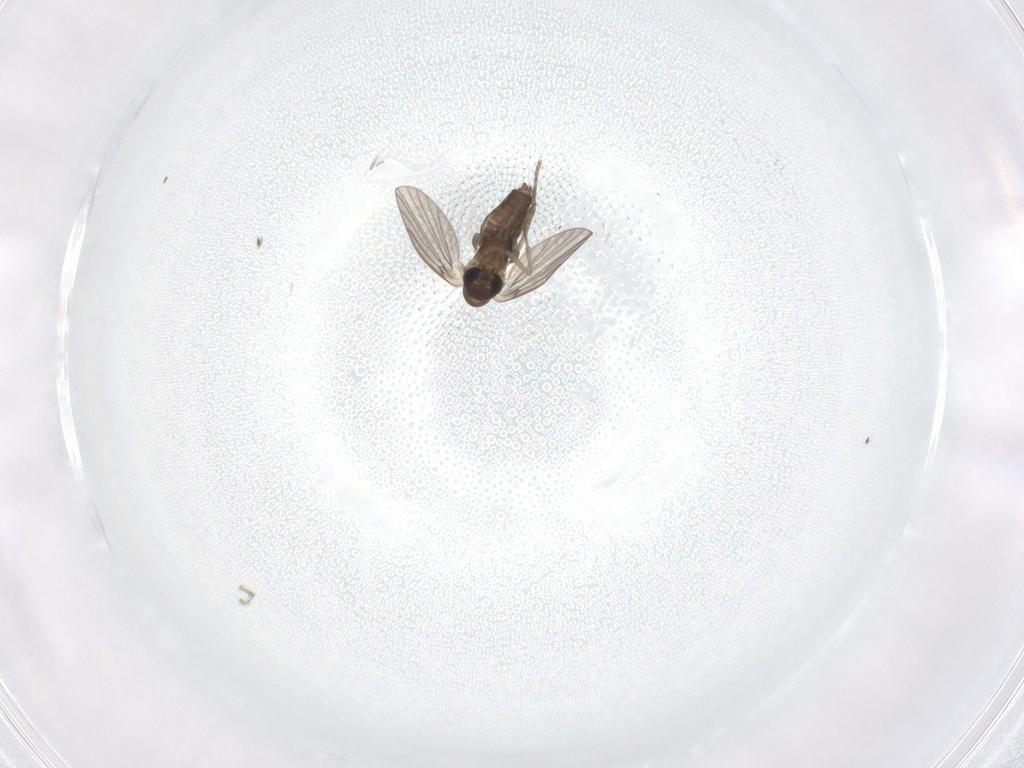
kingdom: Animalia
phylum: Arthropoda
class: Insecta
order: Diptera
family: Cecidomyiidae
